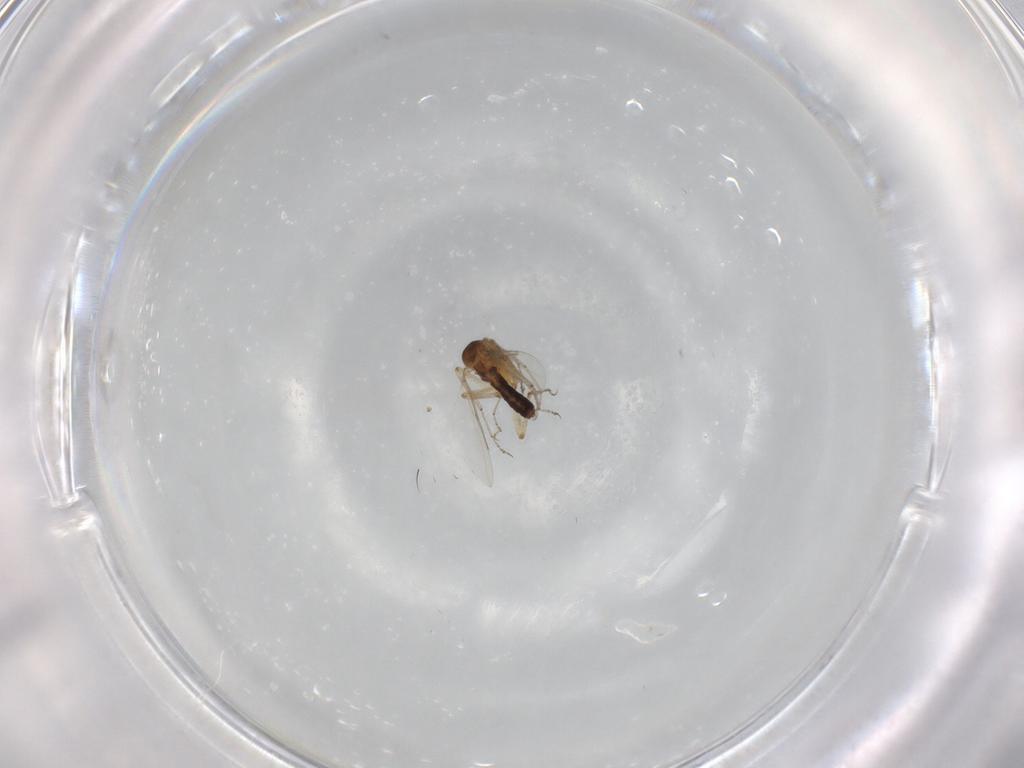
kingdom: Animalia
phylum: Arthropoda
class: Insecta
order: Diptera
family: Ceratopogonidae
